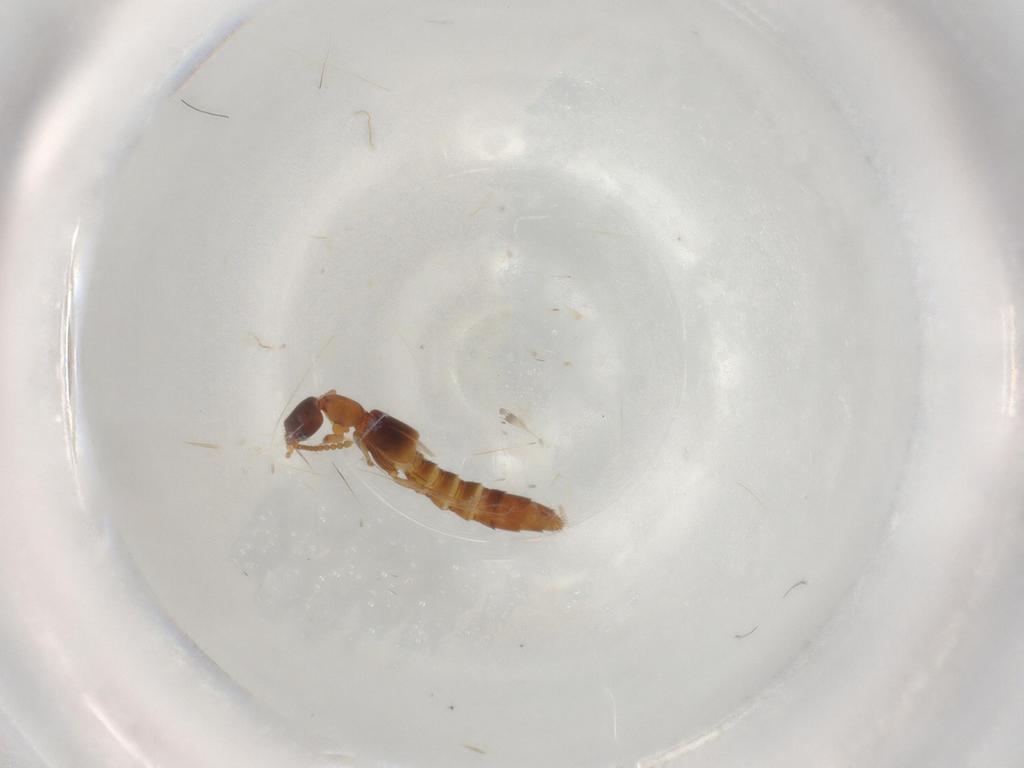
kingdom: Animalia
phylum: Arthropoda
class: Insecta
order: Coleoptera
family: Staphylinidae
